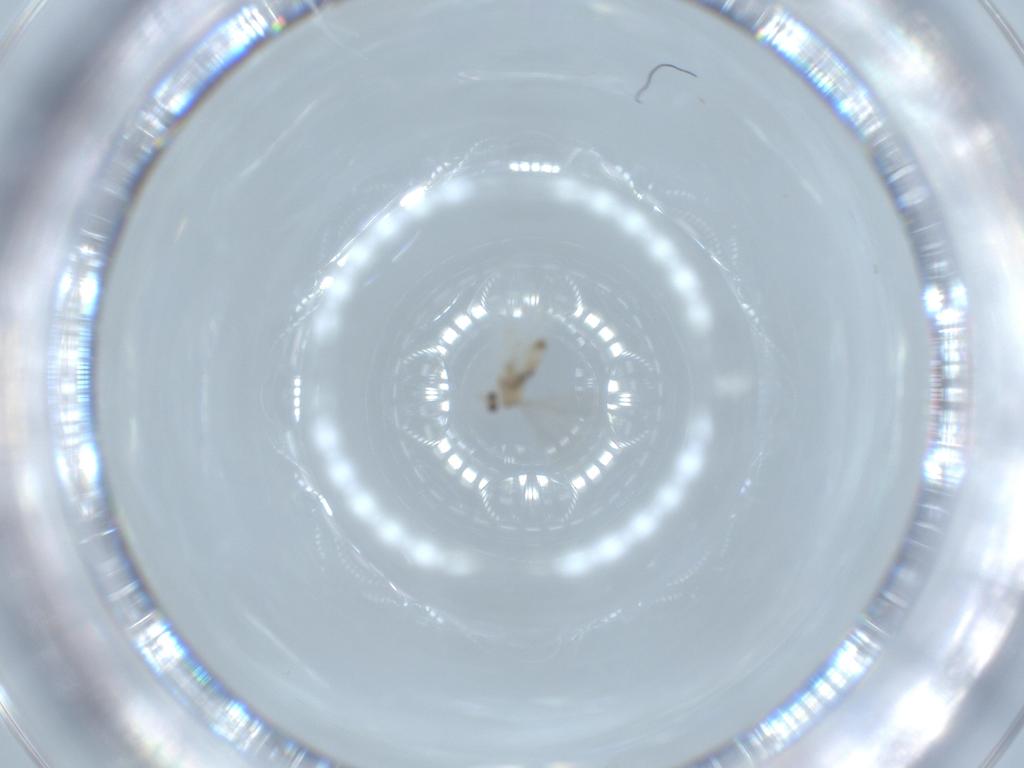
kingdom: Animalia
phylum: Arthropoda
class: Insecta
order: Diptera
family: Cecidomyiidae
